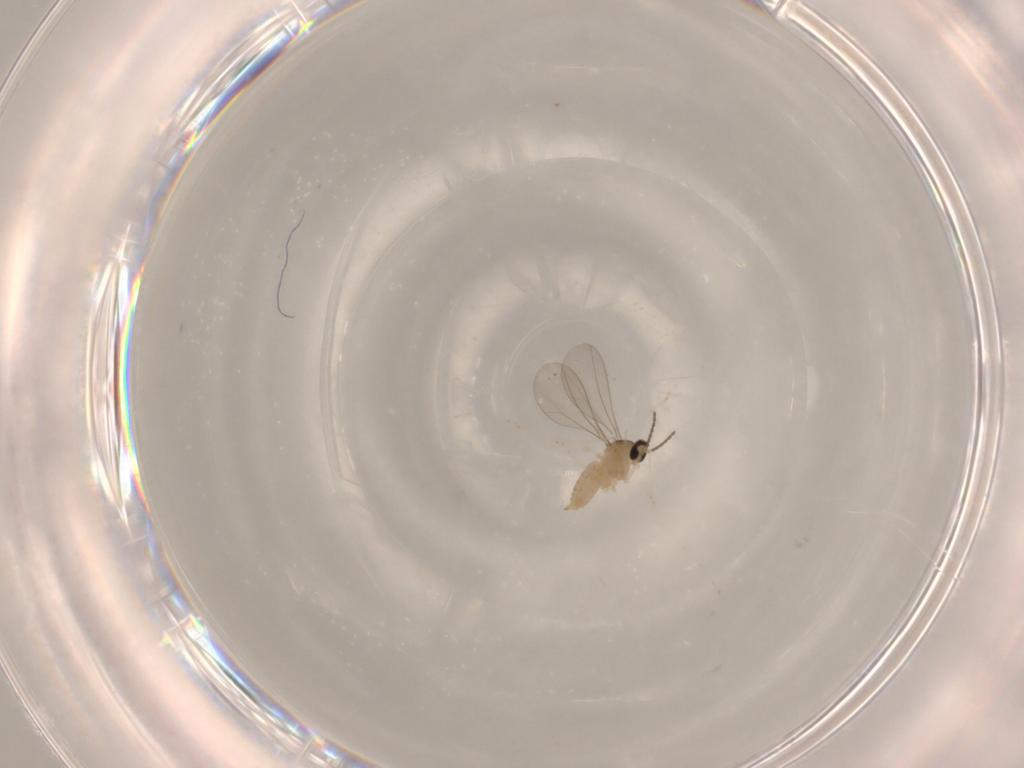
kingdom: Animalia
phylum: Arthropoda
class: Insecta
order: Diptera
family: Cecidomyiidae
